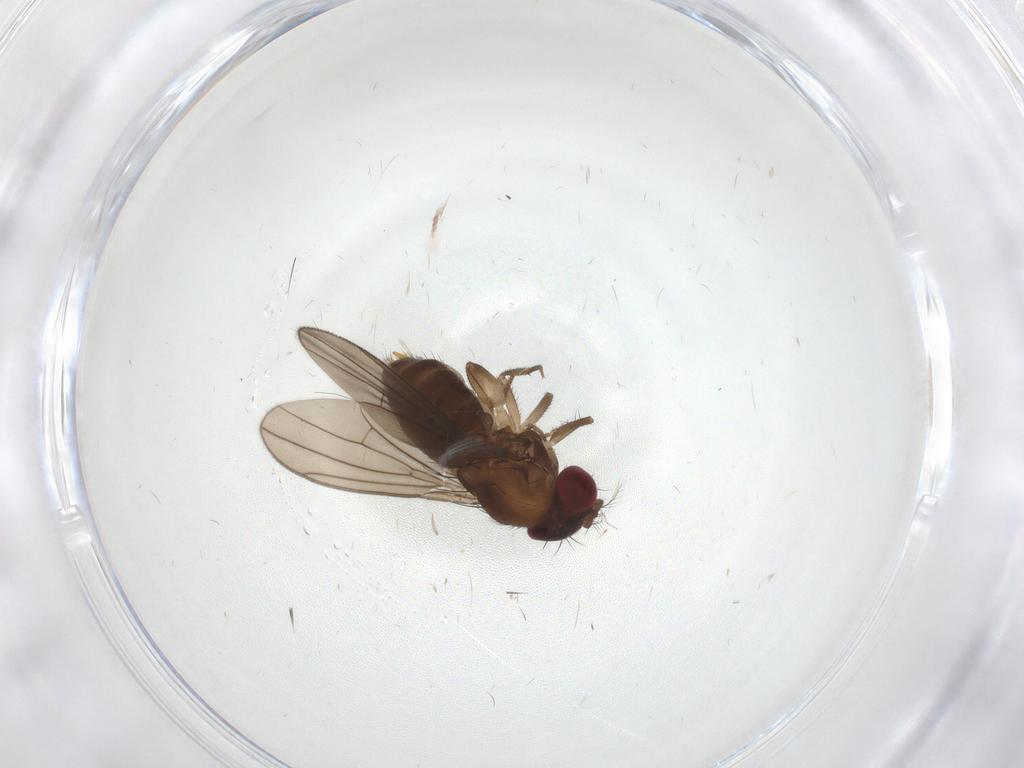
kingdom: Animalia
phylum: Arthropoda
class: Insecta
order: Diptera
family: Drosophilidae
